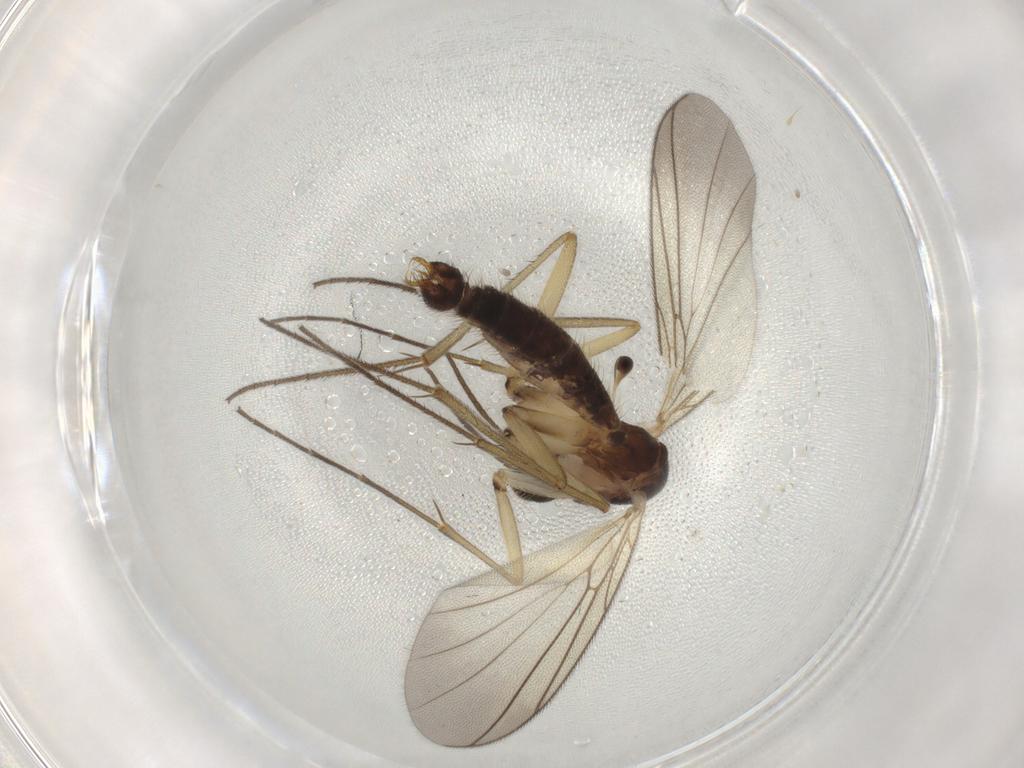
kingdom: Animalia
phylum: Arthropoda
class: Insecta
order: Diptera
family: Mycetophilidae
